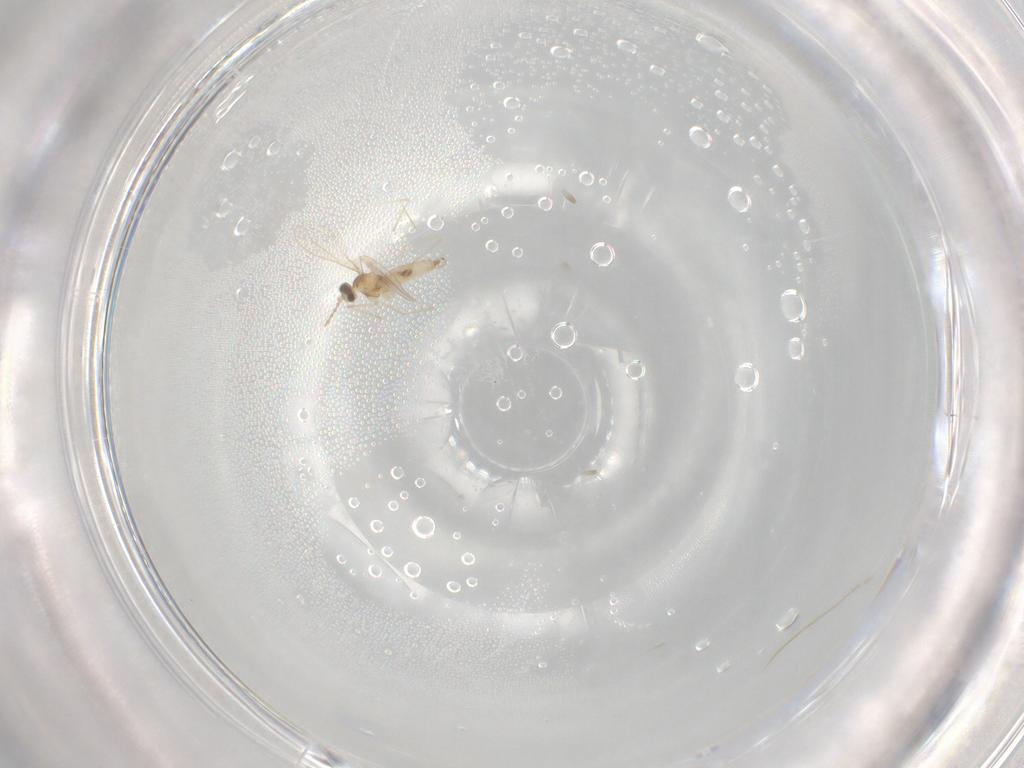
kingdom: Animalia
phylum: Arthropoda
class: Insecta
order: Diptera
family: Cecidomyiidae
